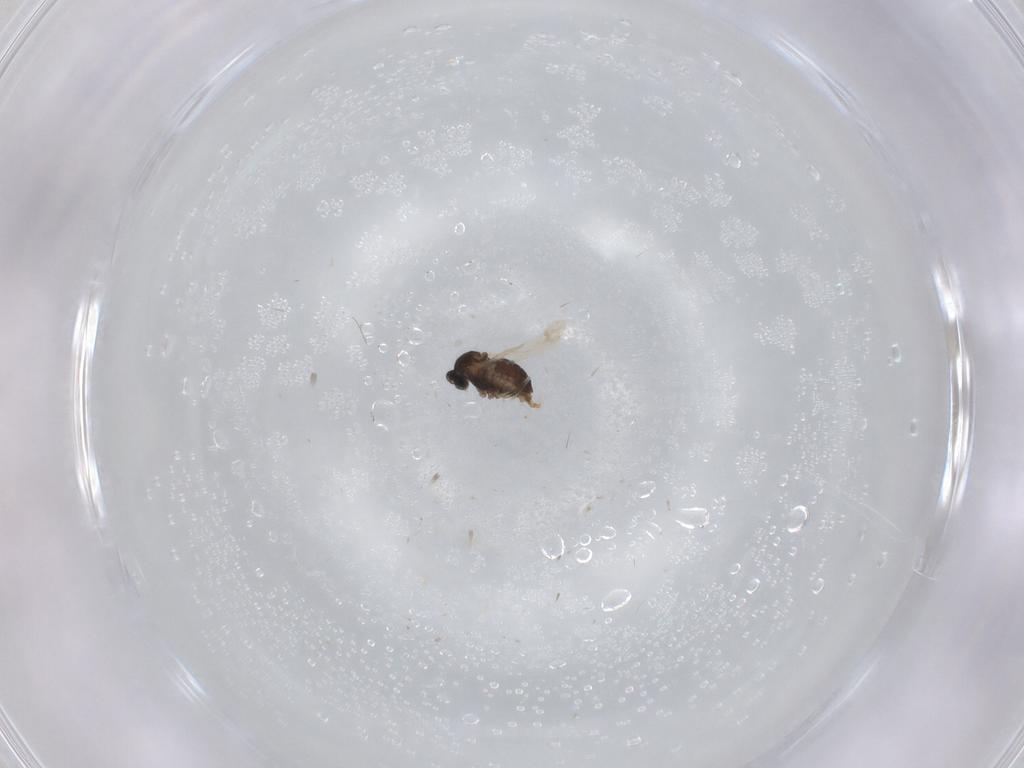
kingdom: Animalia
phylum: Arthropoda
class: Insecta
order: Diptera
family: Cecidomyiidae
